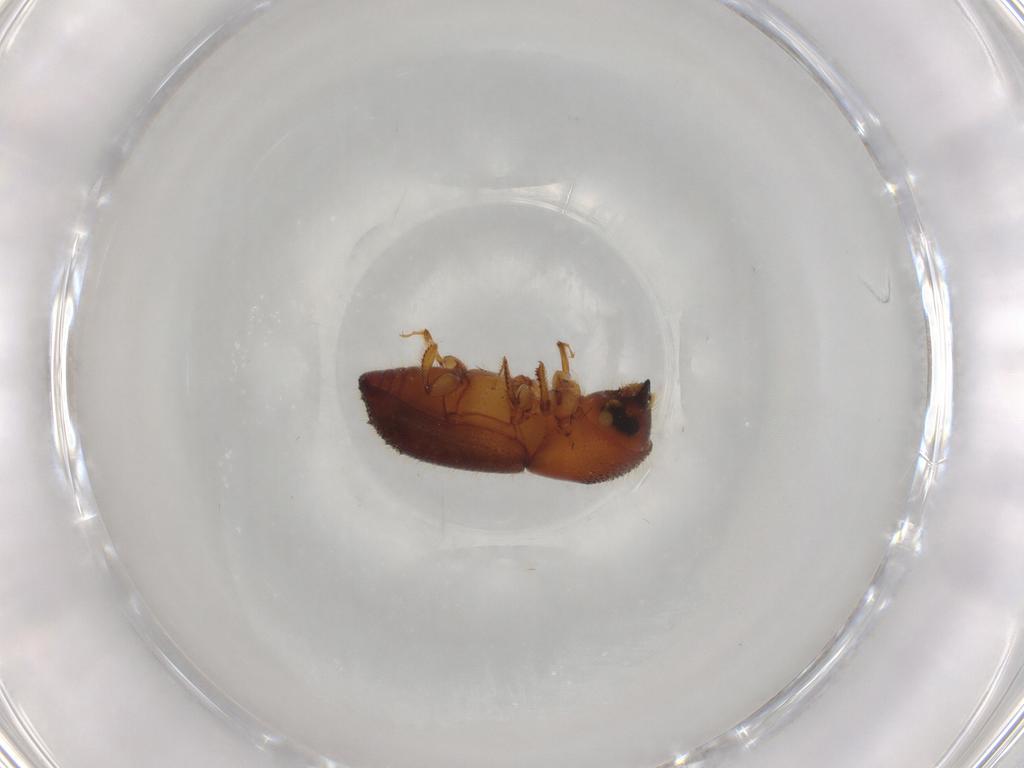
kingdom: Animalia
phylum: Arthropoda
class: Insecta
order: Coleoptera
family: Curculionidae
